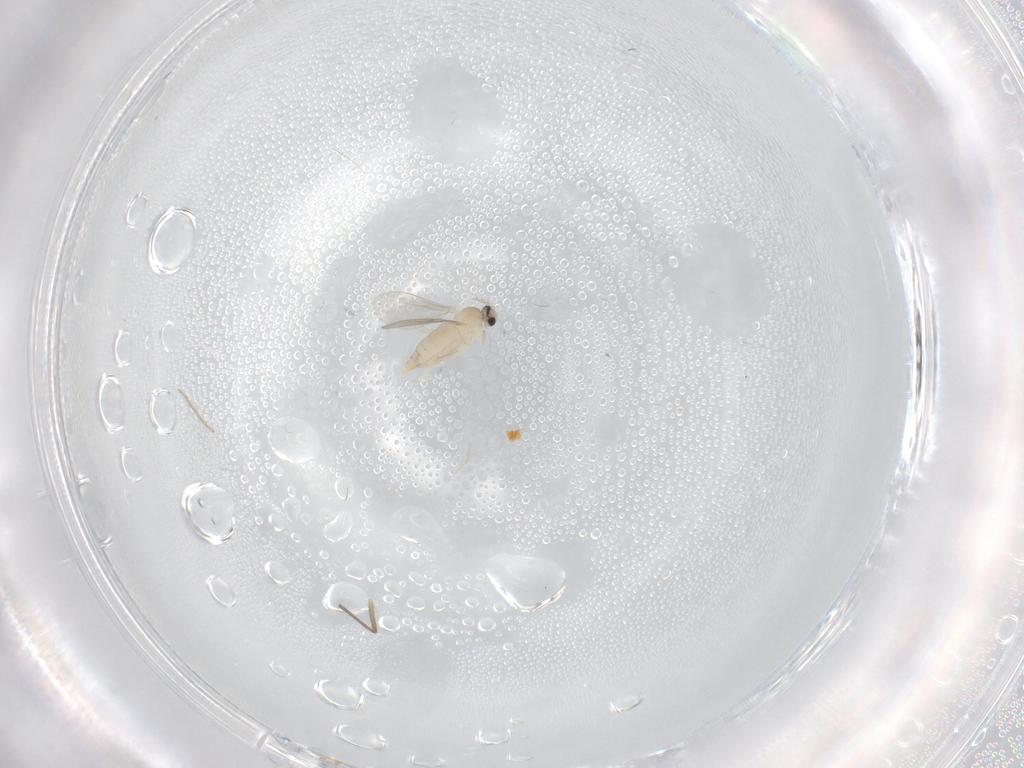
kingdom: Animalia
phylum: Arthropoda
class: Insecta
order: Diptera
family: Cecidomyiidae
